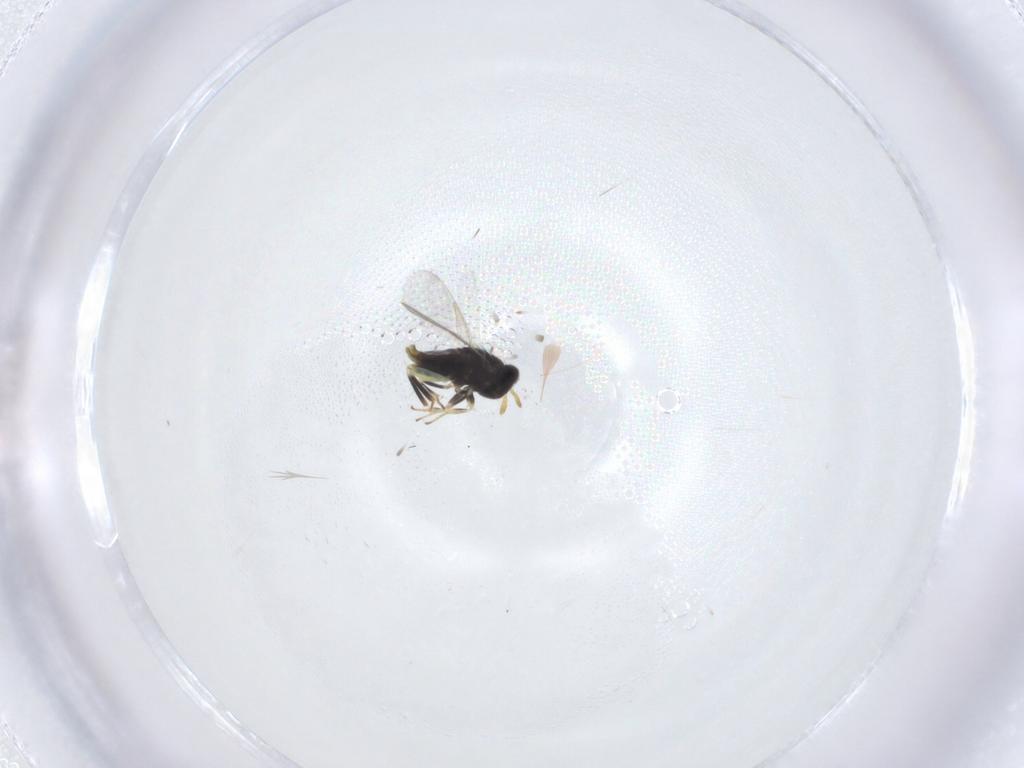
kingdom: Animalia
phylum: Arthropoda
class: Insecta
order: Hymenoptera
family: Aphelinidae
